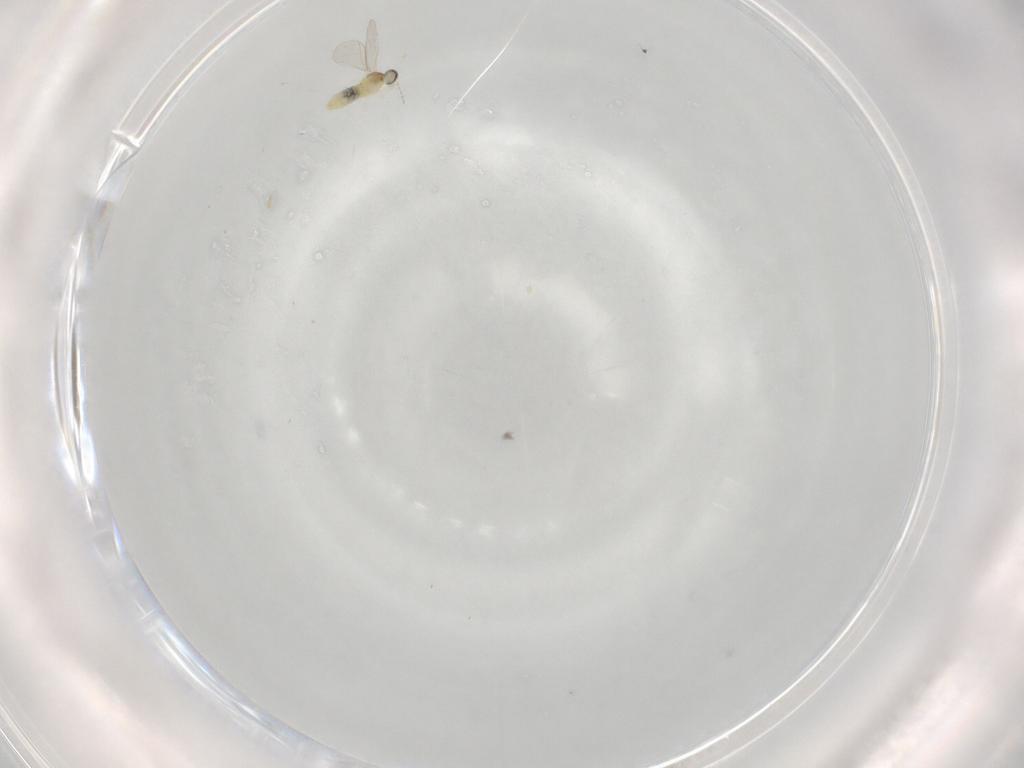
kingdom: Animalia
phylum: Arthropoda
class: Insecta
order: Diptera
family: Cecidomyiidae
